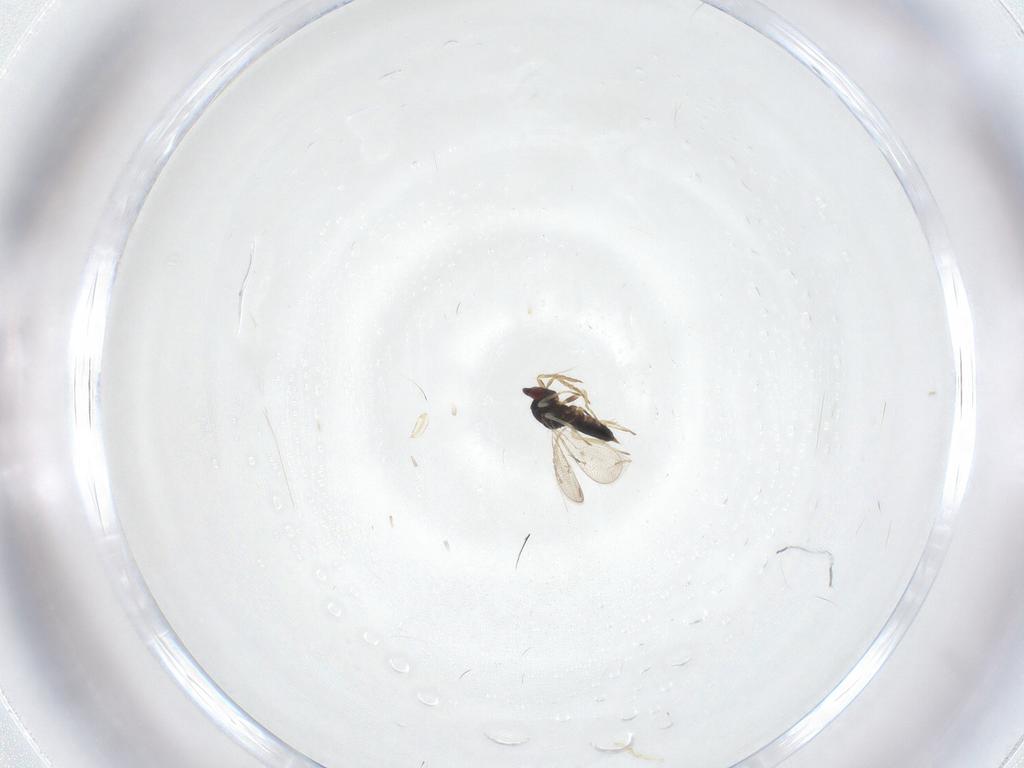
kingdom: Animalia
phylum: Arthropoda
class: Insecta
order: Hymenoptera
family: Eulophidae
